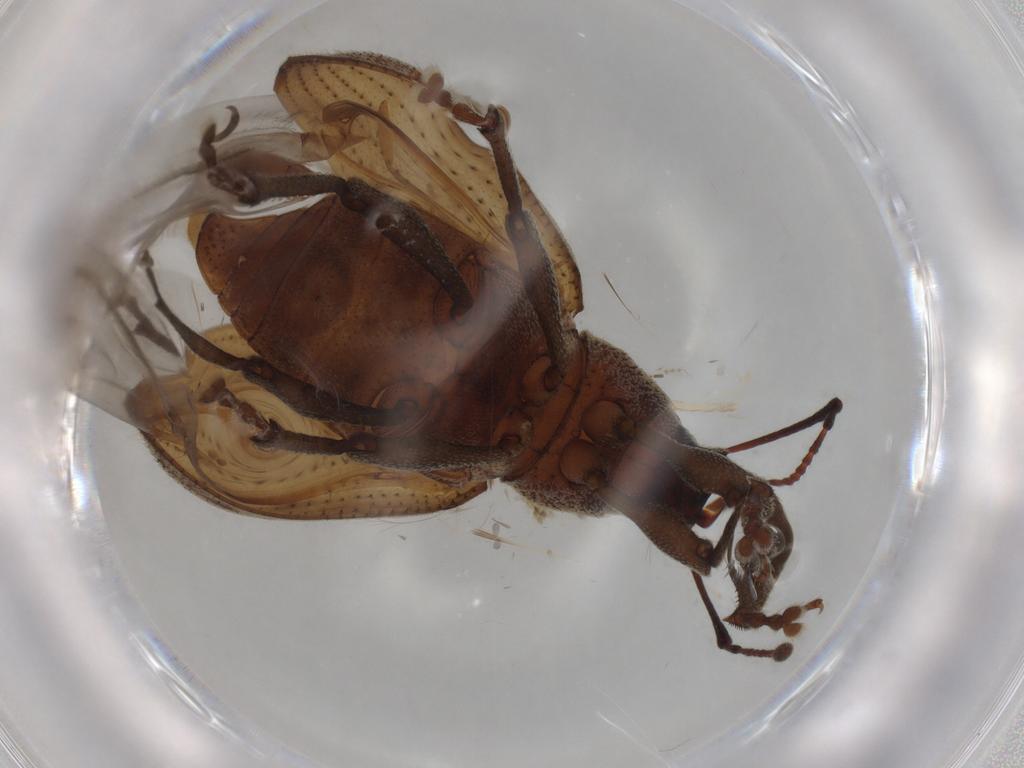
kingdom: Animalia
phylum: Arthropoda
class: Insecta
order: Coleoptera
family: Curculionidae
